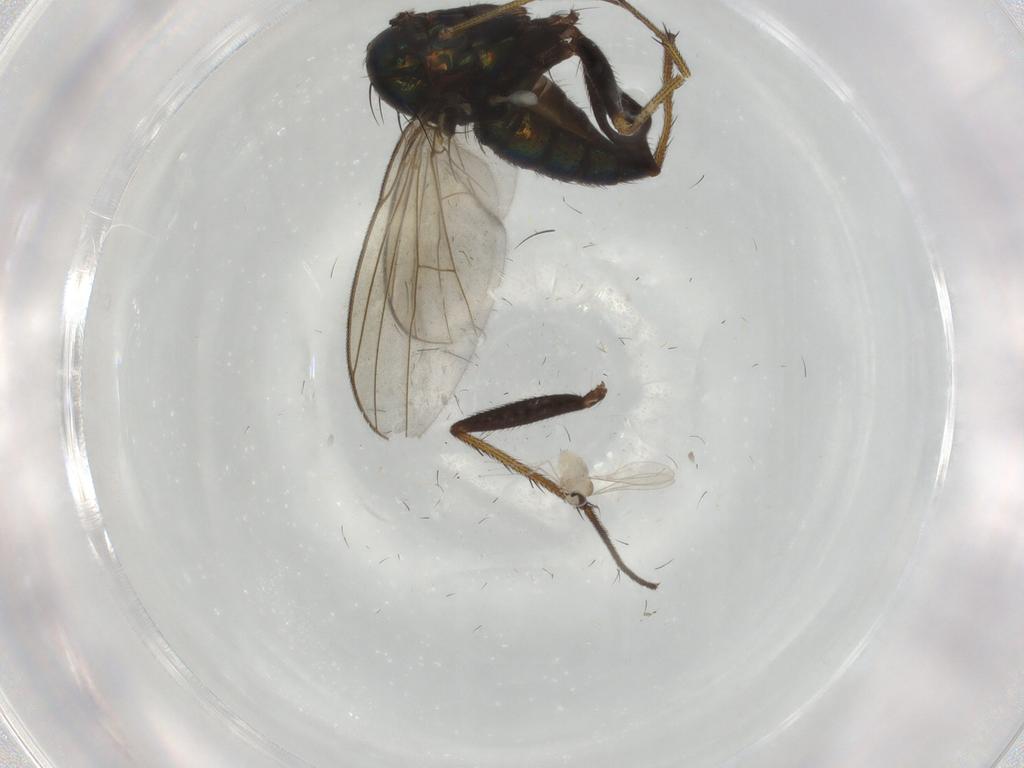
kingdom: Animalia
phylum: Arthropoda
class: Insecta
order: Diptera
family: Dolichopodidae
